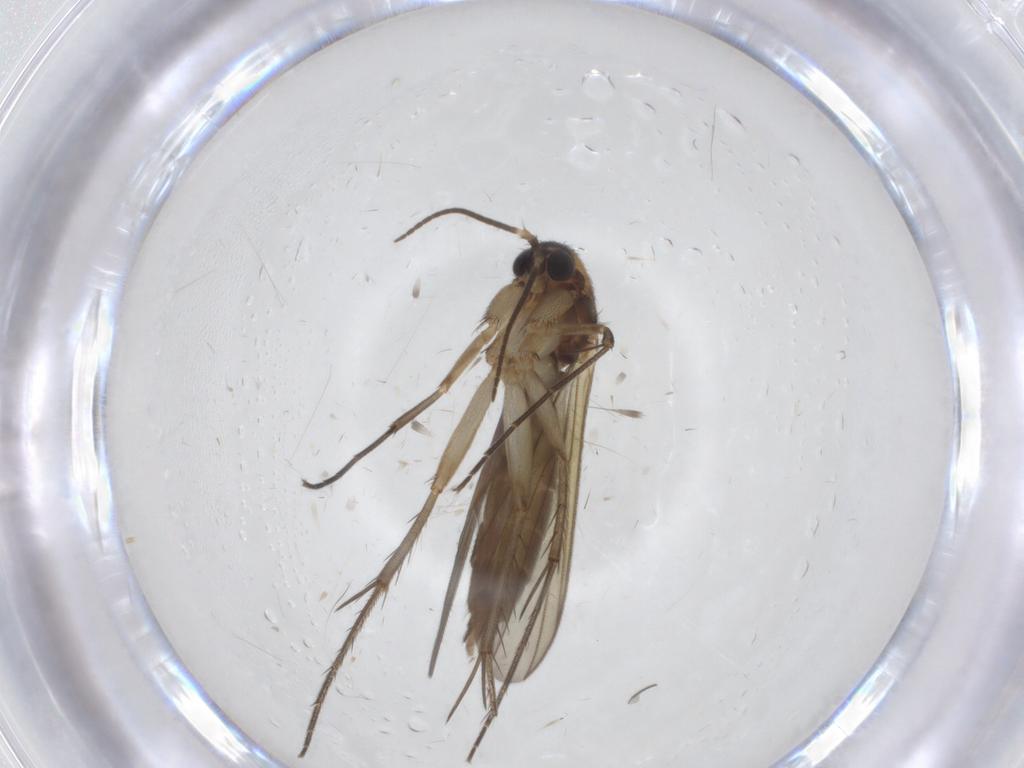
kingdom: Animalia
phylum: Arthropoda
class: Insecta
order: Diptera
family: Mycetophilidae
